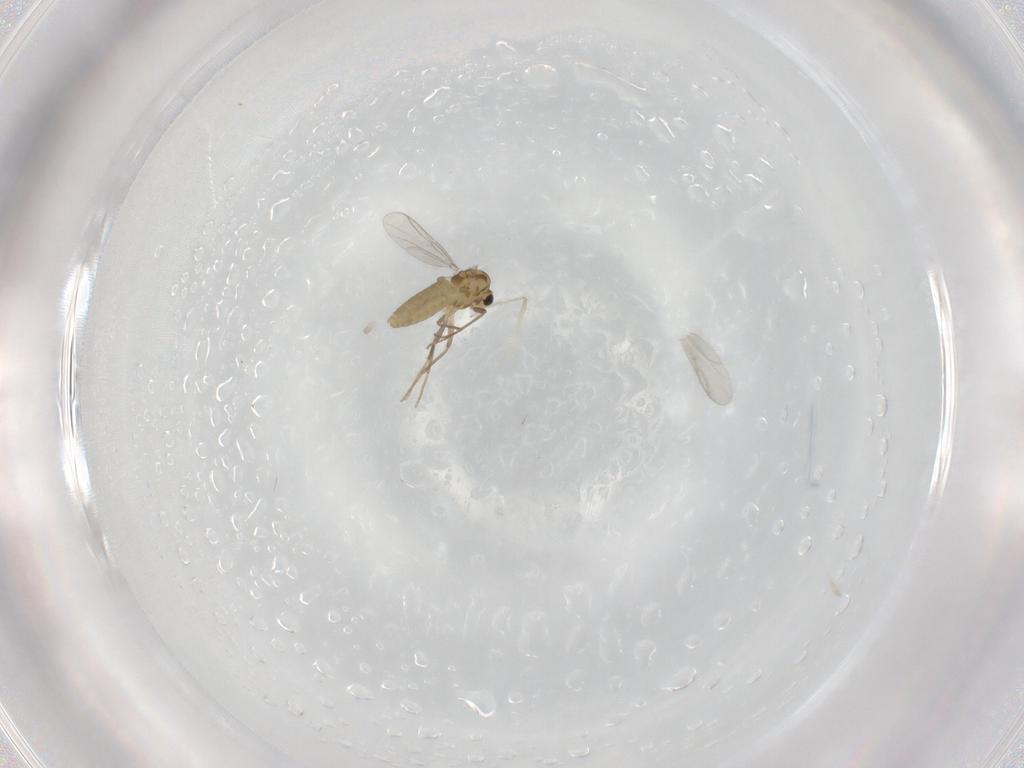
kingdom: Animalia
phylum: Arthropoda
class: Insecta
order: Diptera
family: Chironomidae
